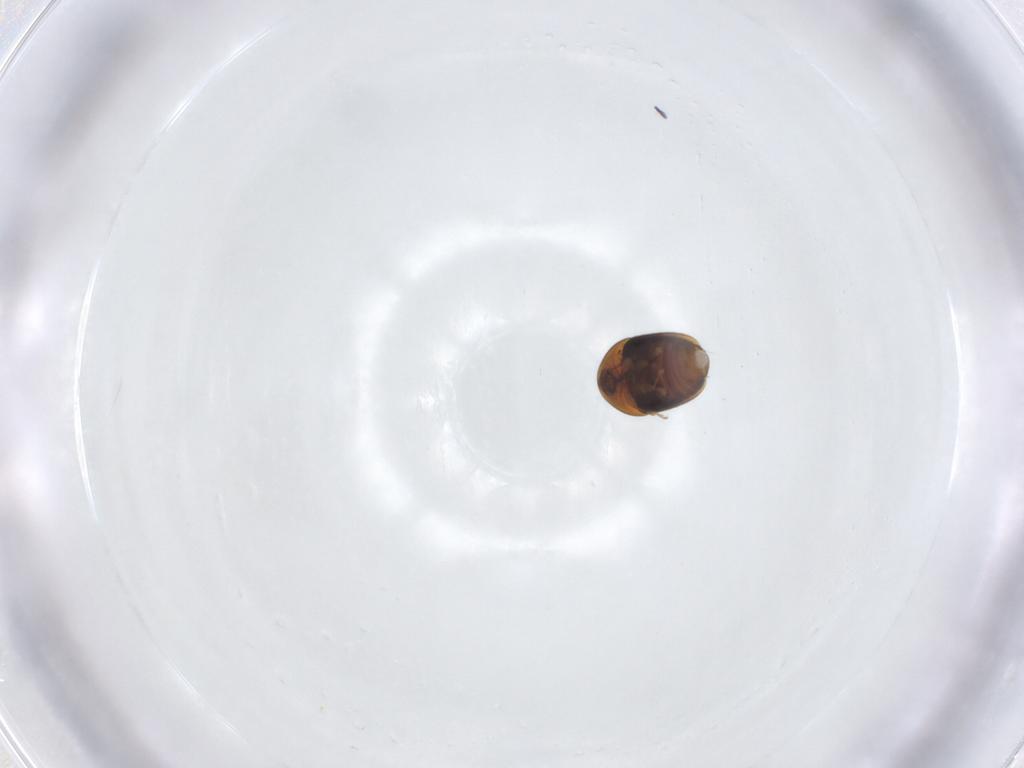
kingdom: Animalia
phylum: Arthropoda
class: Insecta
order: Coleoptera
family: Corylophidae
